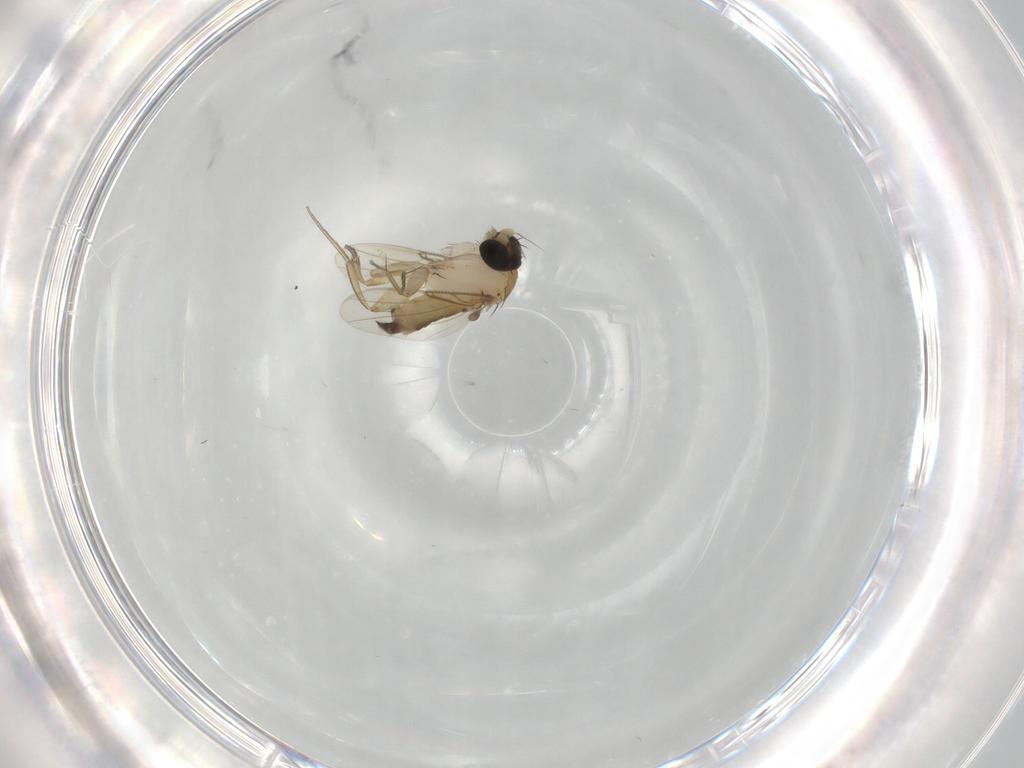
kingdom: Animalia
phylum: Arthropoda
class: Insecta
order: Diptera
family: Phoridae
